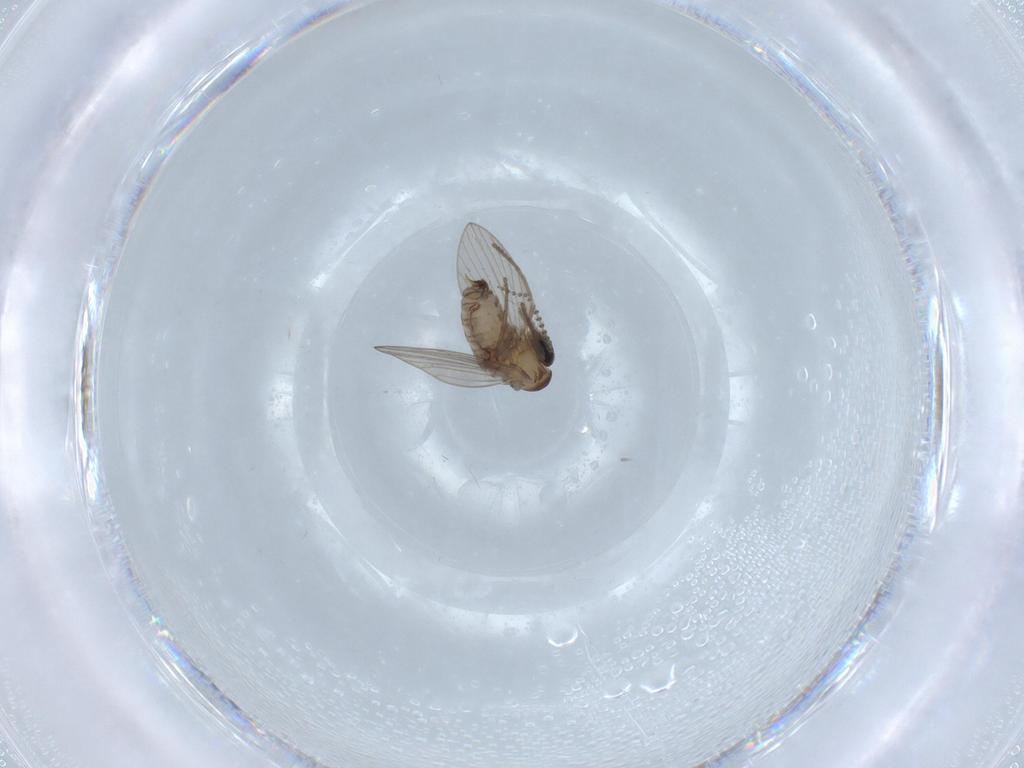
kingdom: Animalia
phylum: Arthropoda
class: Insecta
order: Diptera
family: Psychodidae
